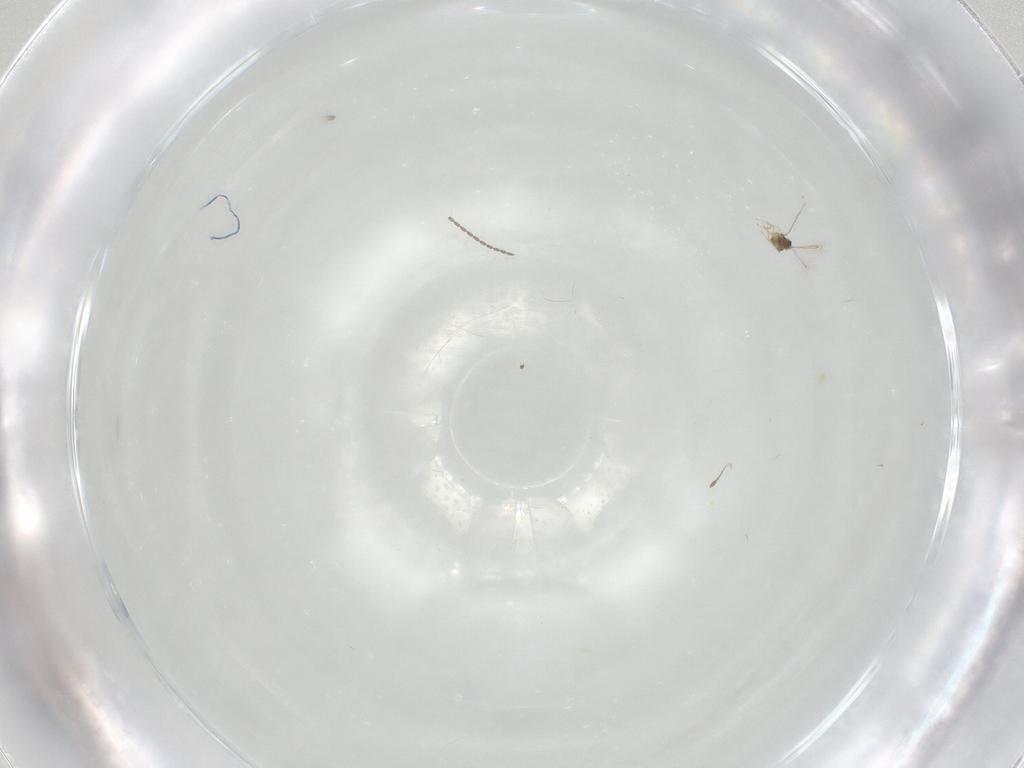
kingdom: Animalia
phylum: Arthropoda
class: Insecta
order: Hymenoptera
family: Mymaridae
